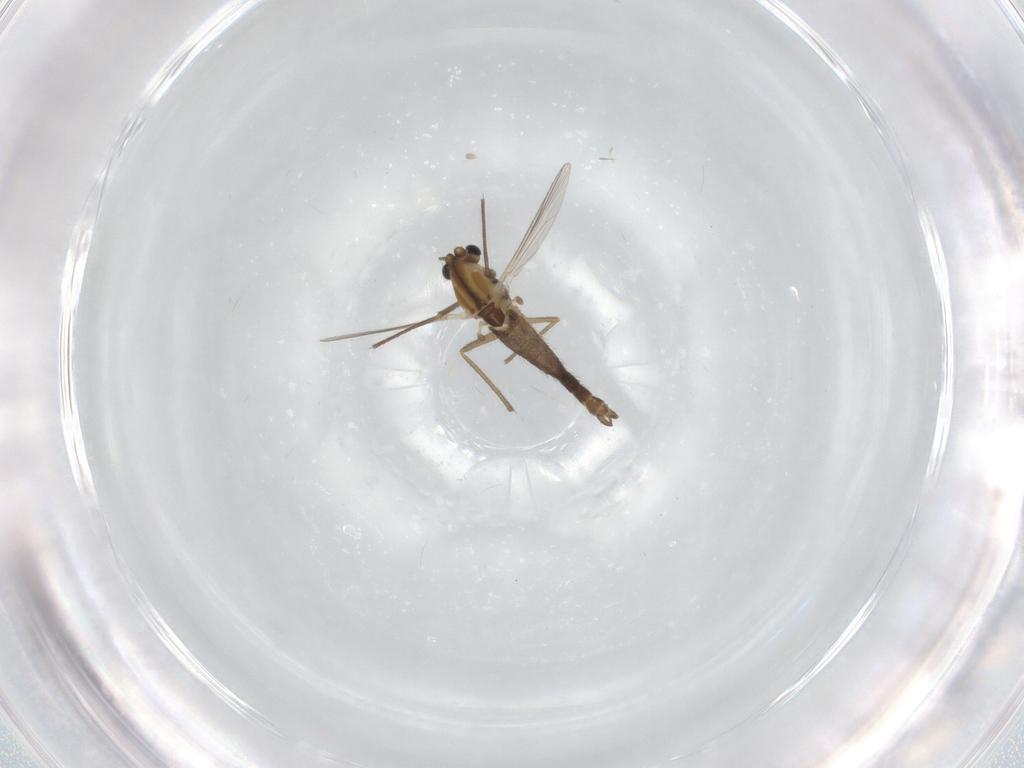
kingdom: Animalia
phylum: Arthropoda
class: Insecta
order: Diptera
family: Chironomidae
